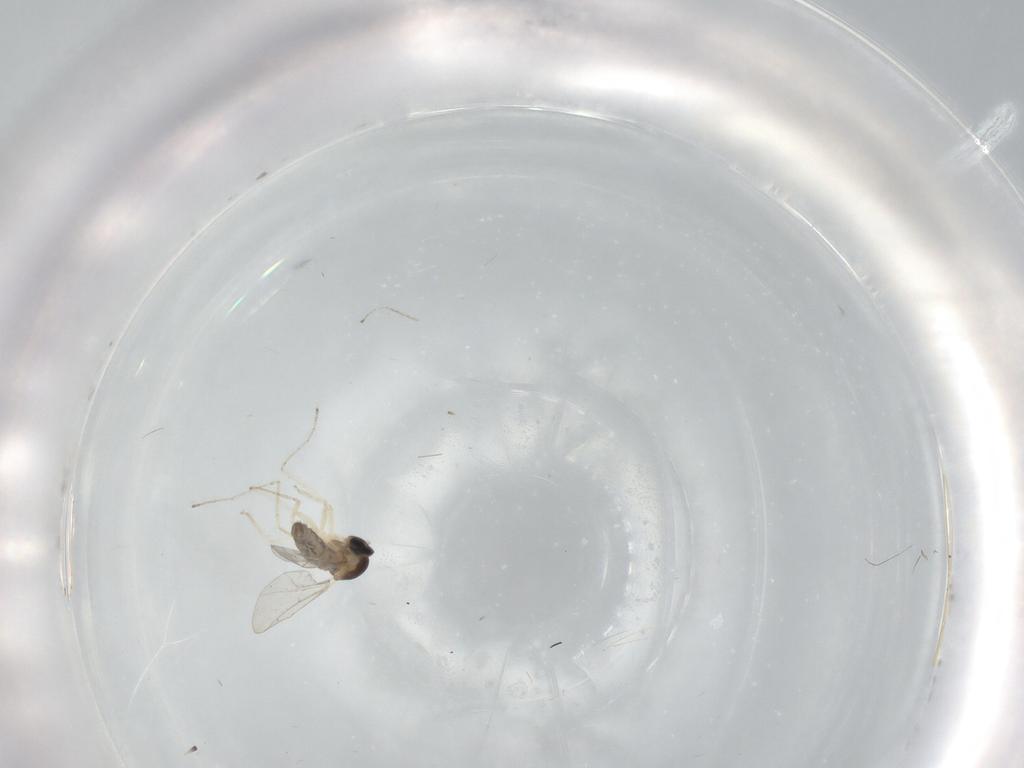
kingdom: Animalia
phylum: Arthropoda
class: Insecta
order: Diptera
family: Cecidomyiidae
